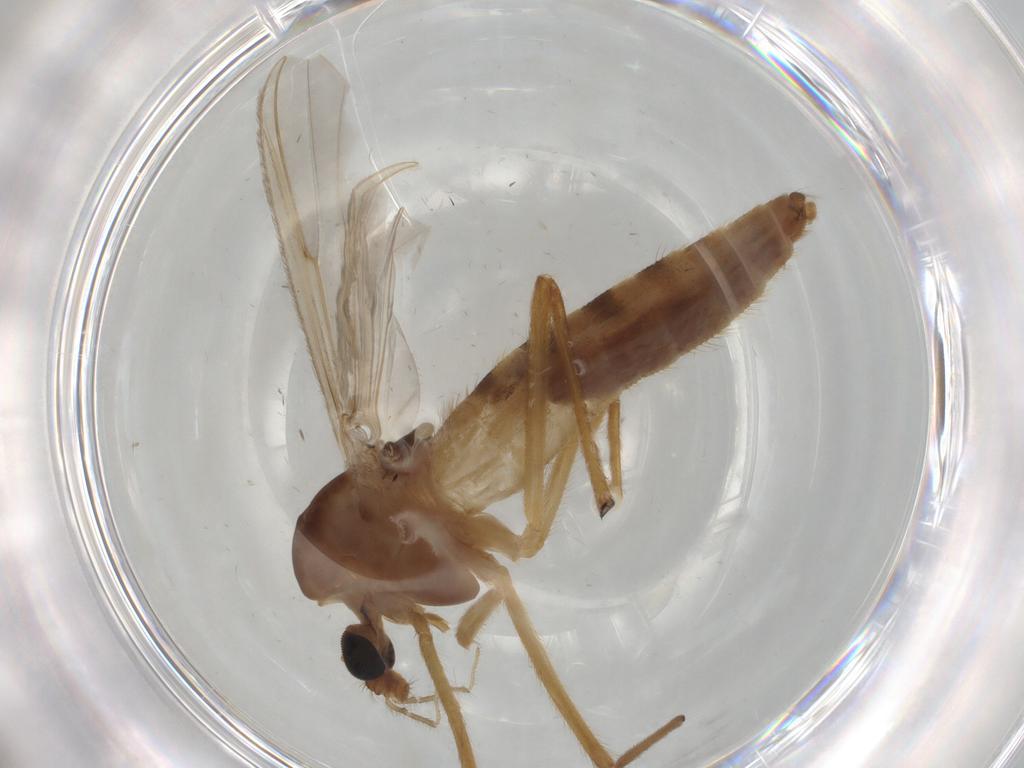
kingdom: Animalia
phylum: Arthropoda
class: Insecta
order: Diptera
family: Chironomidae
